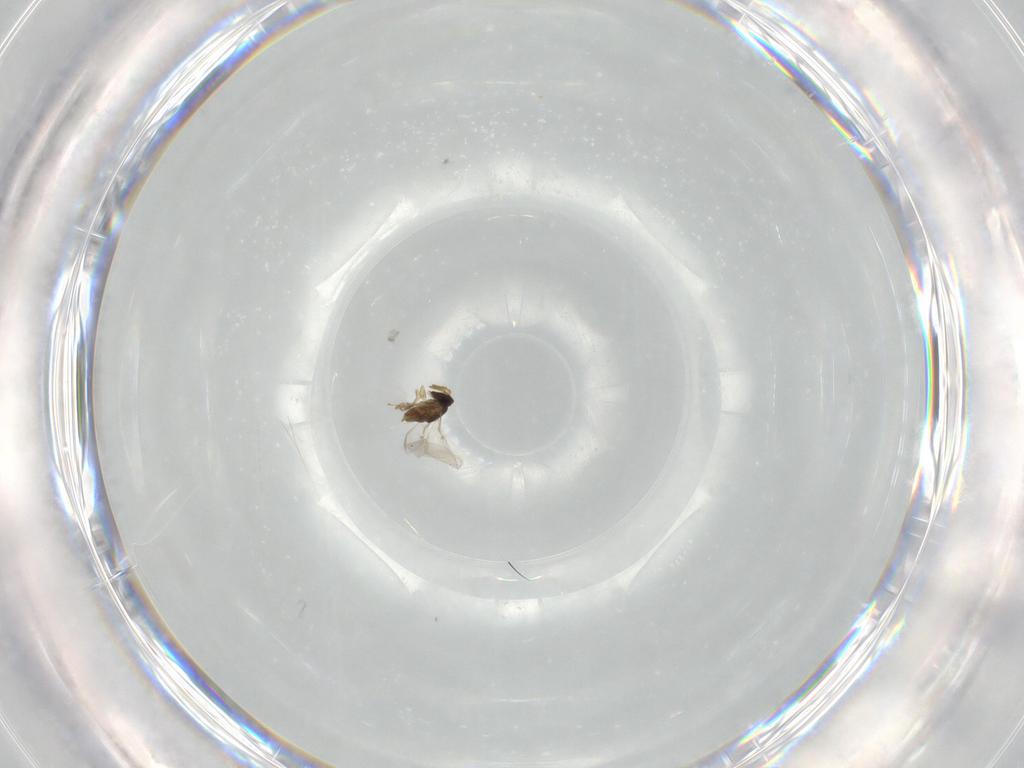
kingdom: Animalia
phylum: Arthropoda
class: Insecta
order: Hymenoptera
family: Encyrtidae
